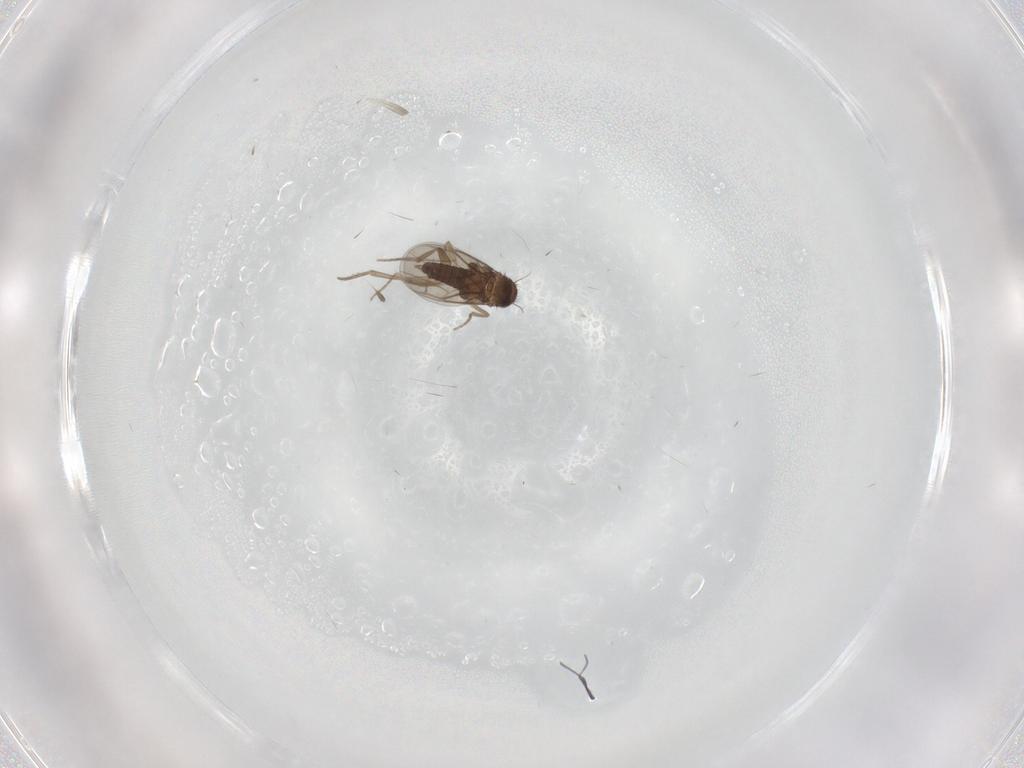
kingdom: Animalia
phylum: Arthropoda
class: Insecta
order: Diptera
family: Phoridae
